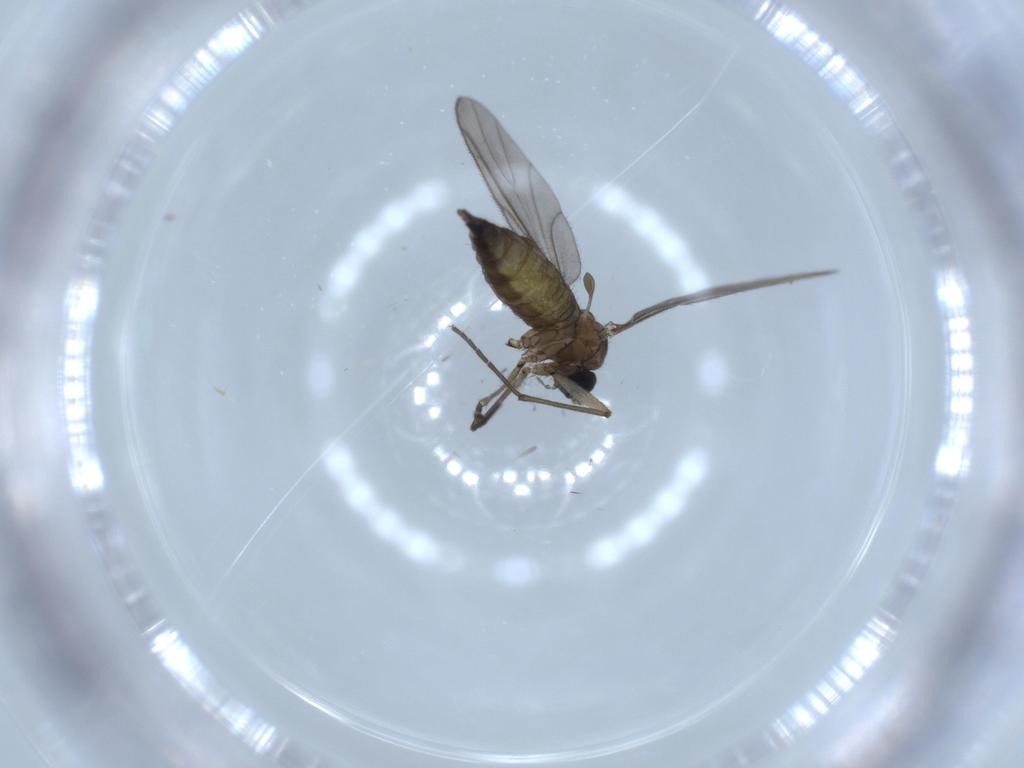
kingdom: Animalia
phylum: Arthropoda
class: Insecta
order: Diptera
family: Sciaridae
